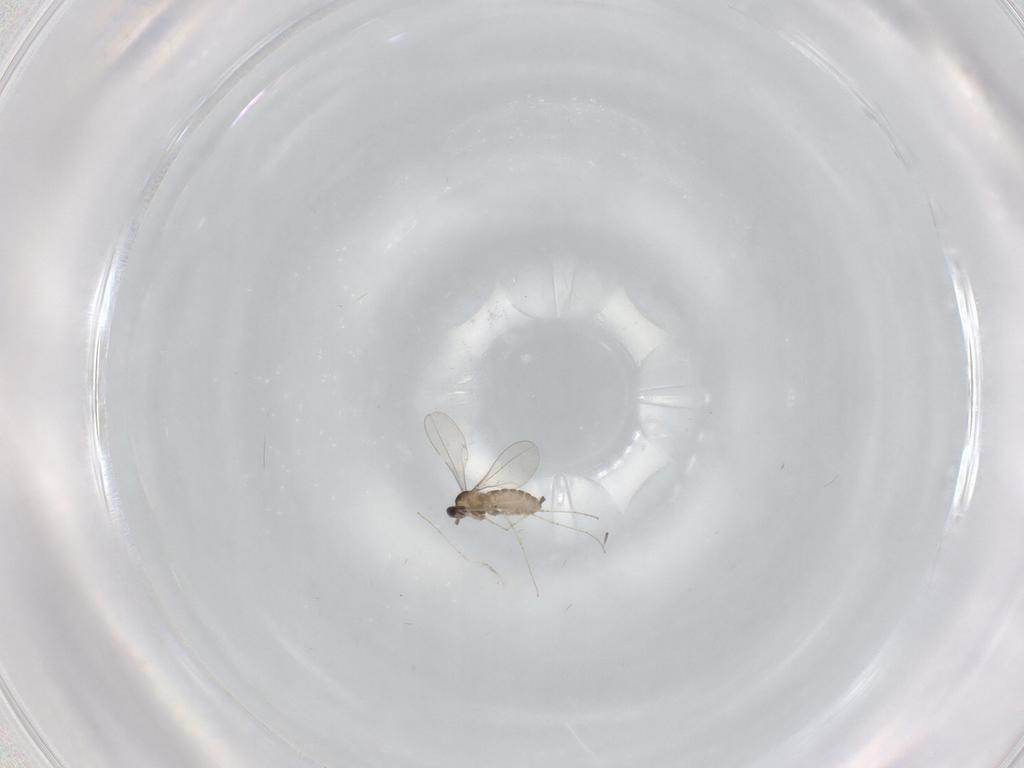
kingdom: Animalia
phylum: Arthropoda
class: Insecta
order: Diptera
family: Cecidomyiidae
